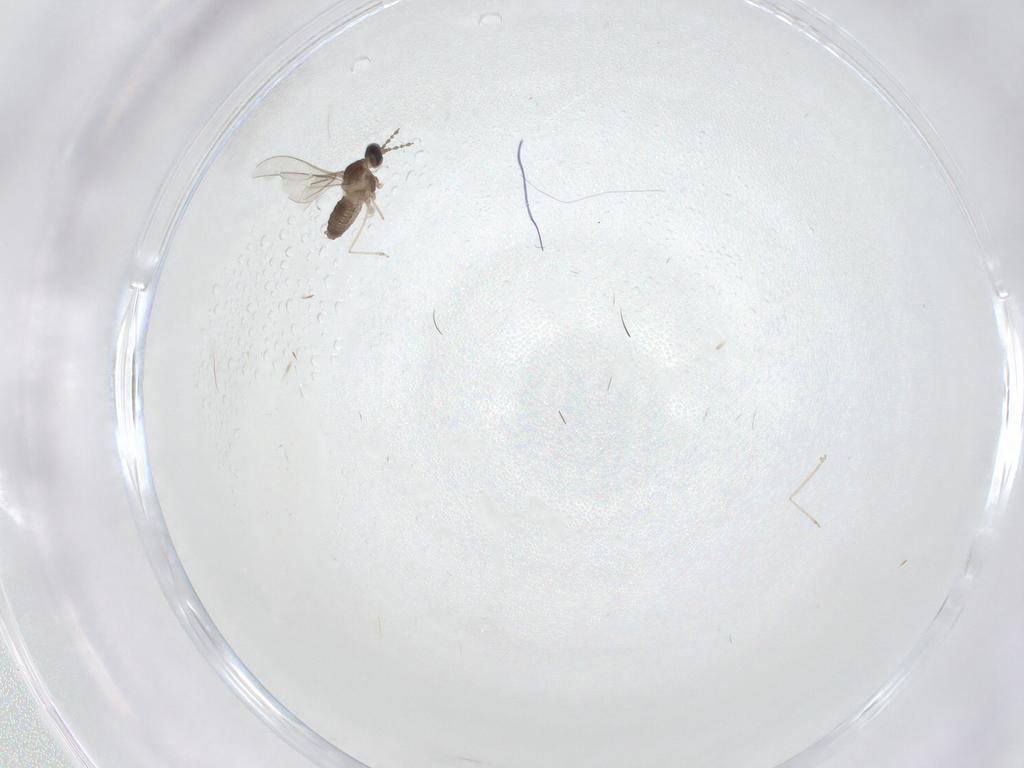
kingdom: Animalia
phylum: Arthropoda
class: Insecta
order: Diptera
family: Cecidomyiidae
